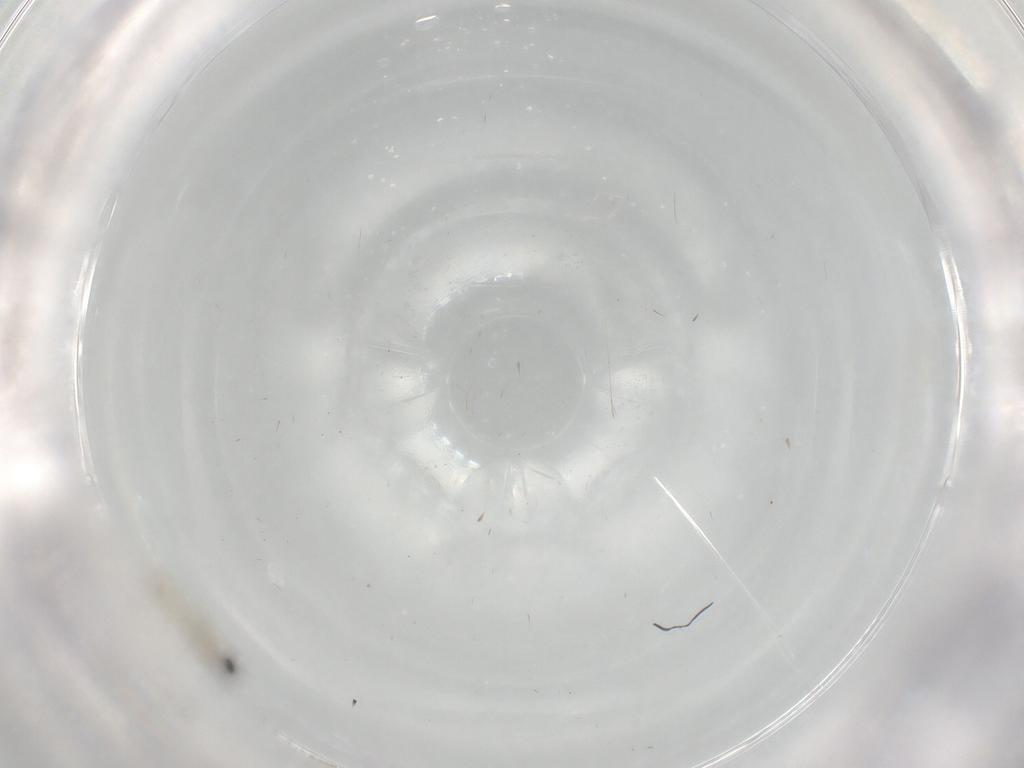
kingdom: Animalia
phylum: Arthropoda
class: Insecta
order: Diptera
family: Cecidomyiidae
